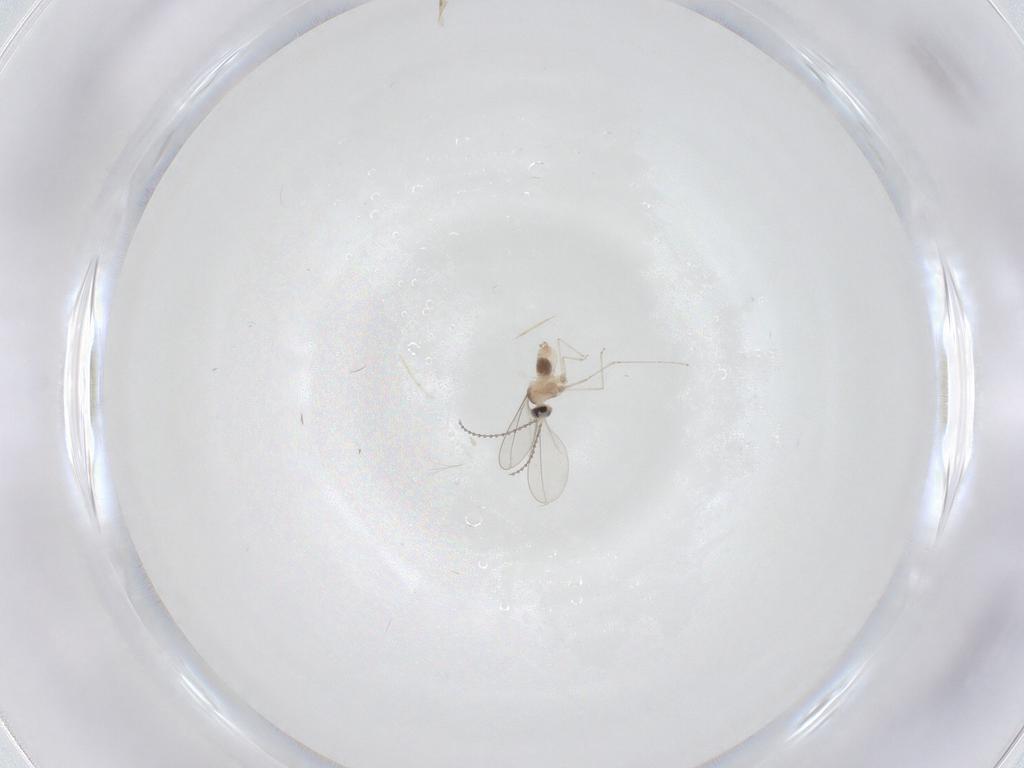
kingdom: Animalia
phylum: Arthropoda
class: Insecta
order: Diptera
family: Cecidomyiidae
